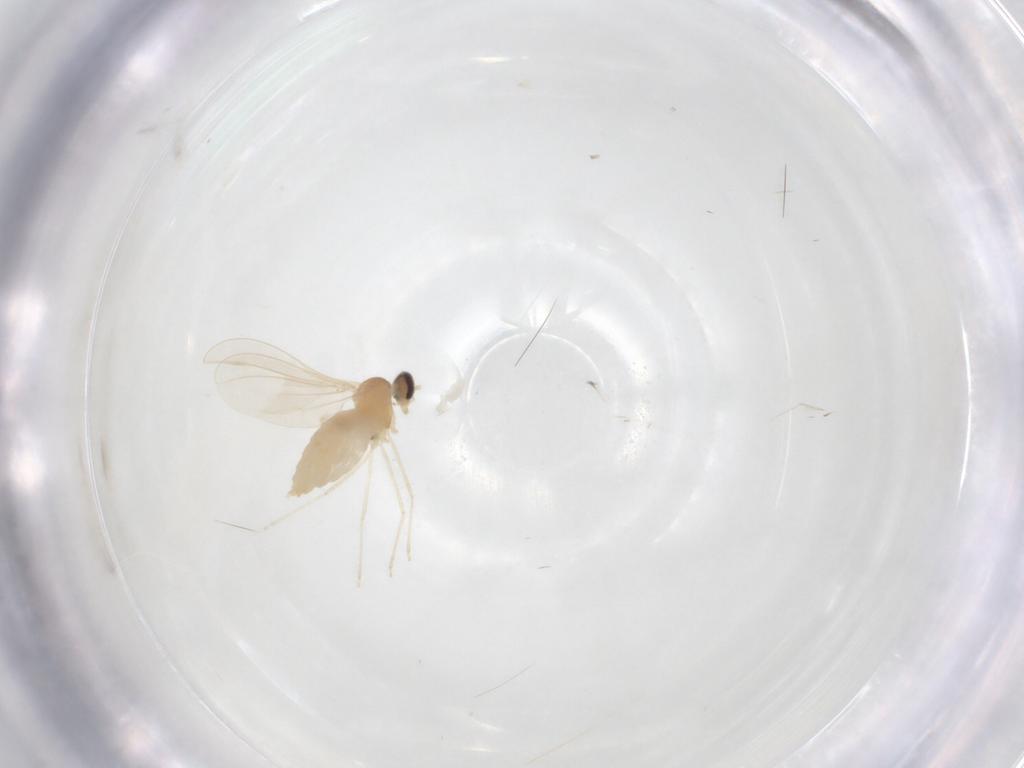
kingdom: Animalia
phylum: Arthropoda
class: Insecta
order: Diptera
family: Cecidomyiidae
